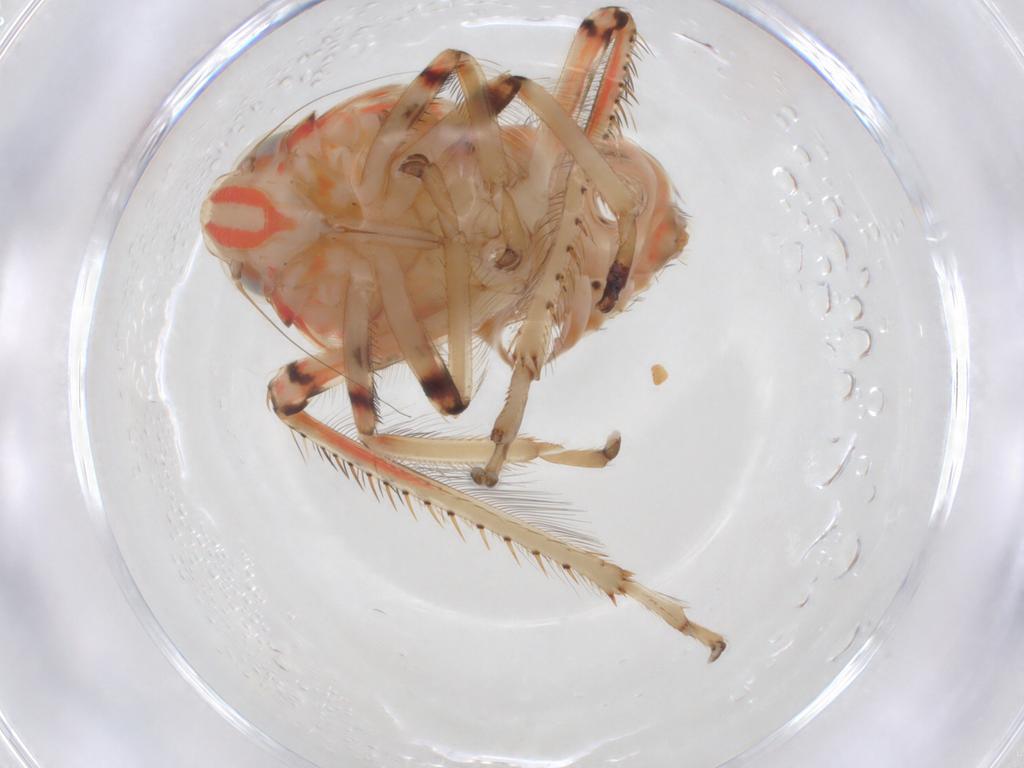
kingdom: Animalia
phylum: Arthropoda
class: Insecta
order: Hemiptera
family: Cicadellidae
